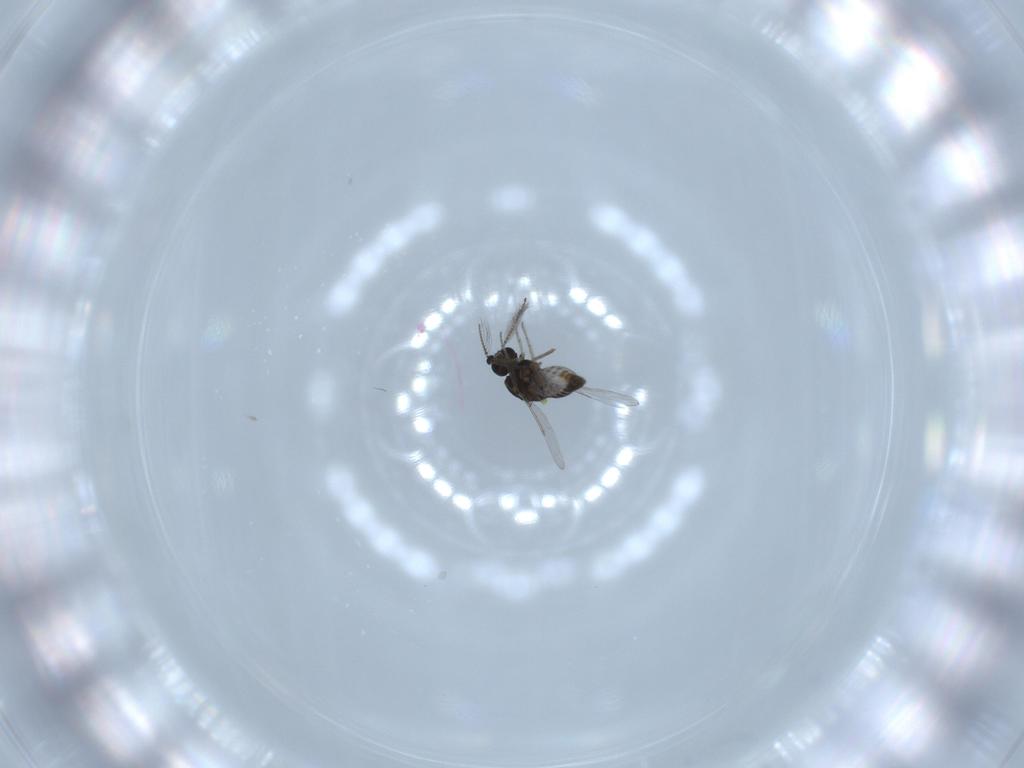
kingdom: Animalia
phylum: Arthropoda
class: Insecta
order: Diptera
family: Ceratopogonidae
